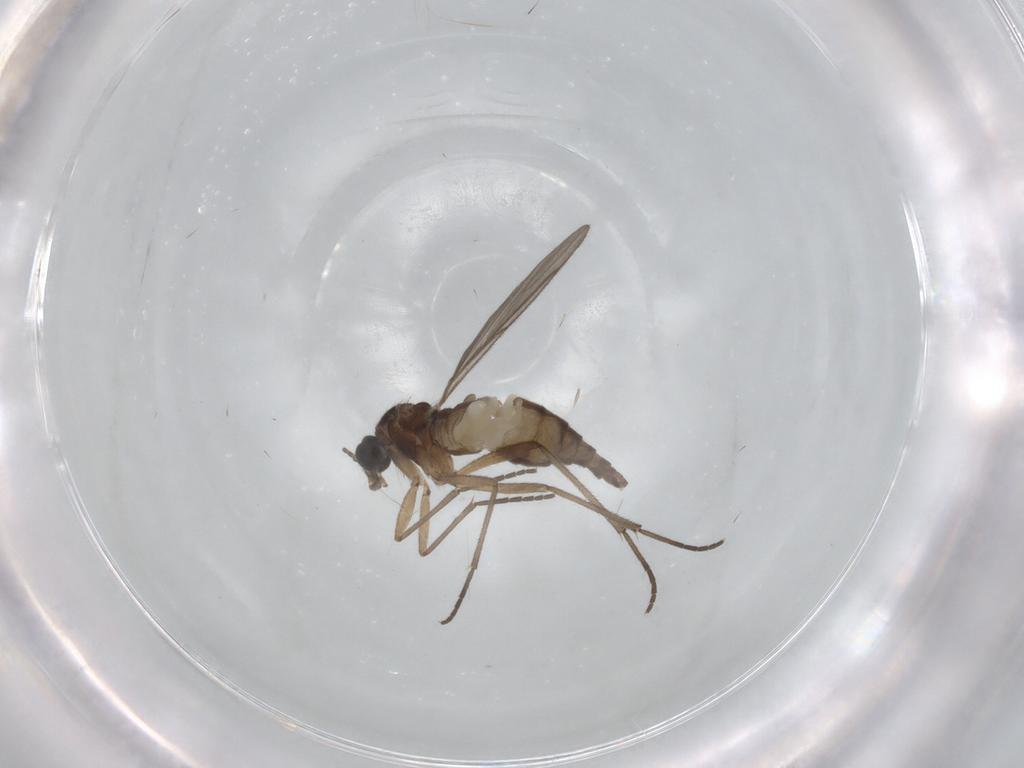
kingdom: Animalia
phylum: Arthropoda
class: Insecta
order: Diptera
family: Sciaridae
